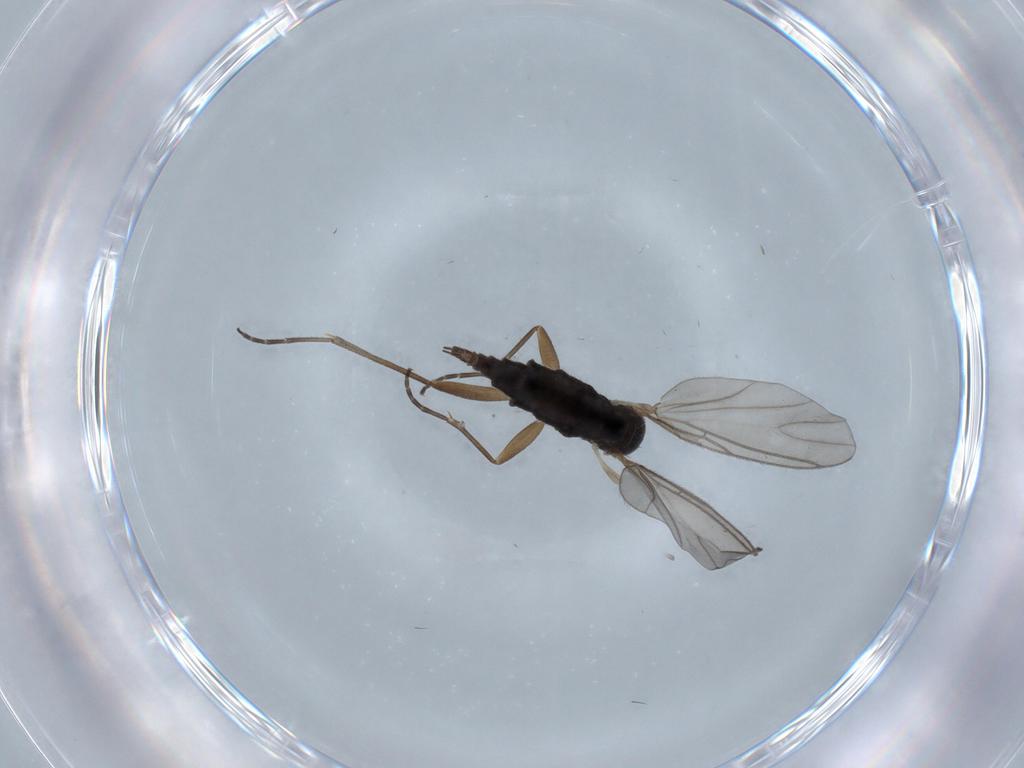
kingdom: Animalia
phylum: Arthropoda
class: Insecta
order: Diptera
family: Sciaridae
